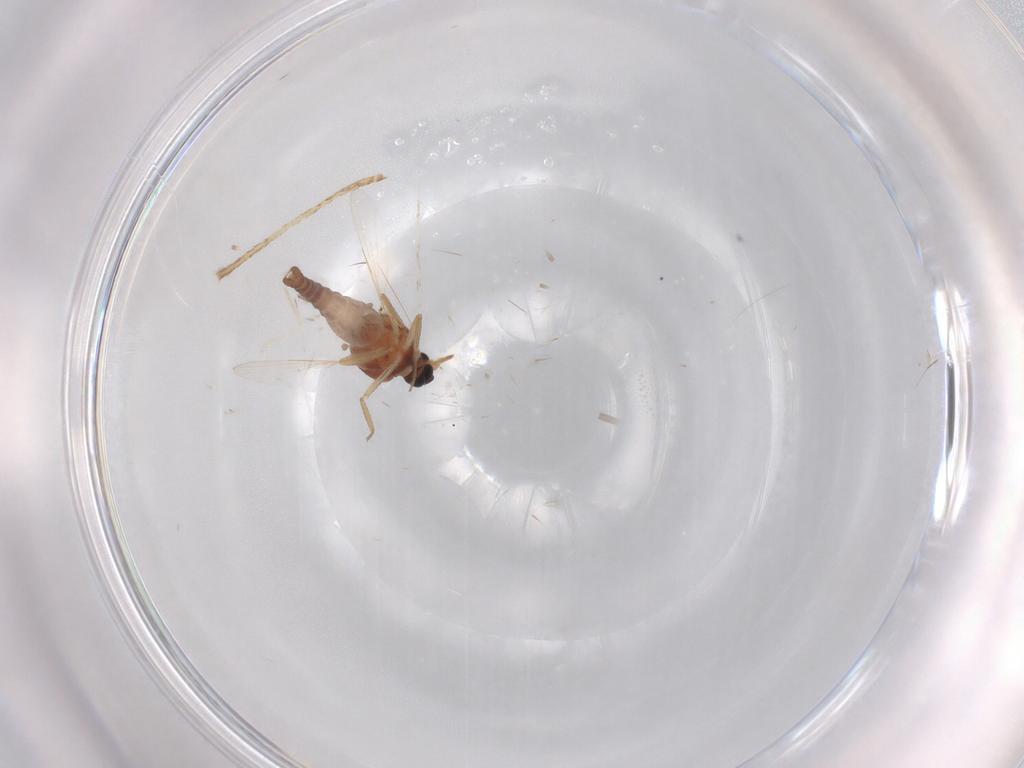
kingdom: Animalia
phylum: Arthropoda
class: Insecta
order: Diptera
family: Ceratopogonidae
